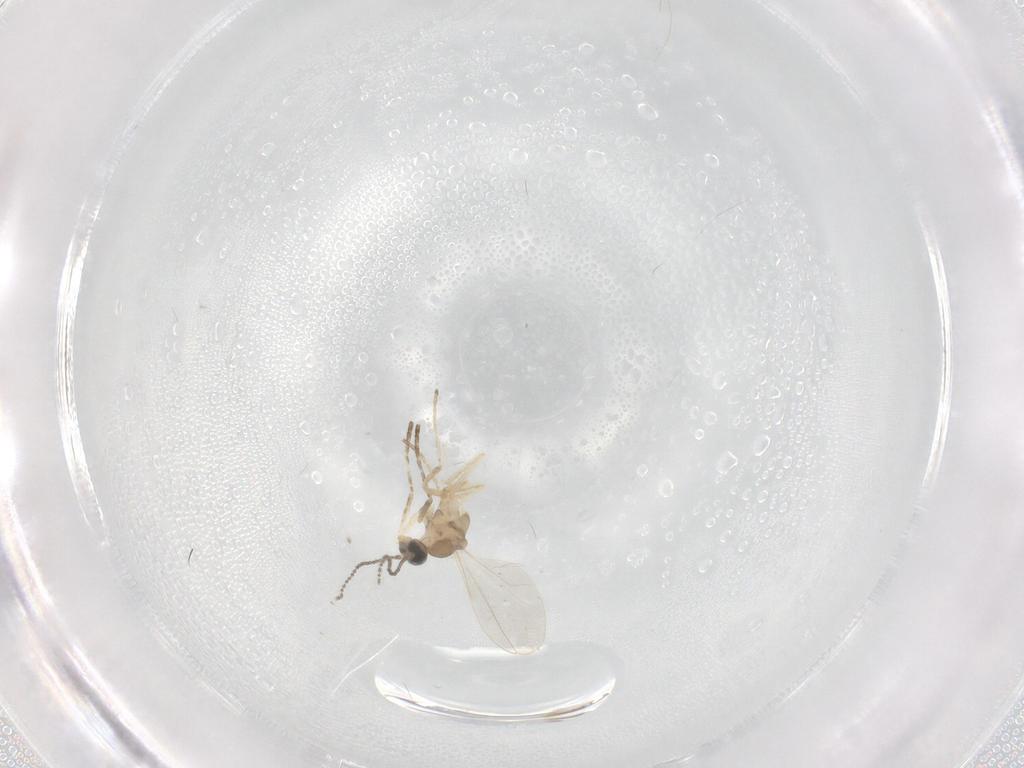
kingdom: Animalia
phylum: Arthropoda
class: Insecta
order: Diptera
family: Cecidomyiidae
